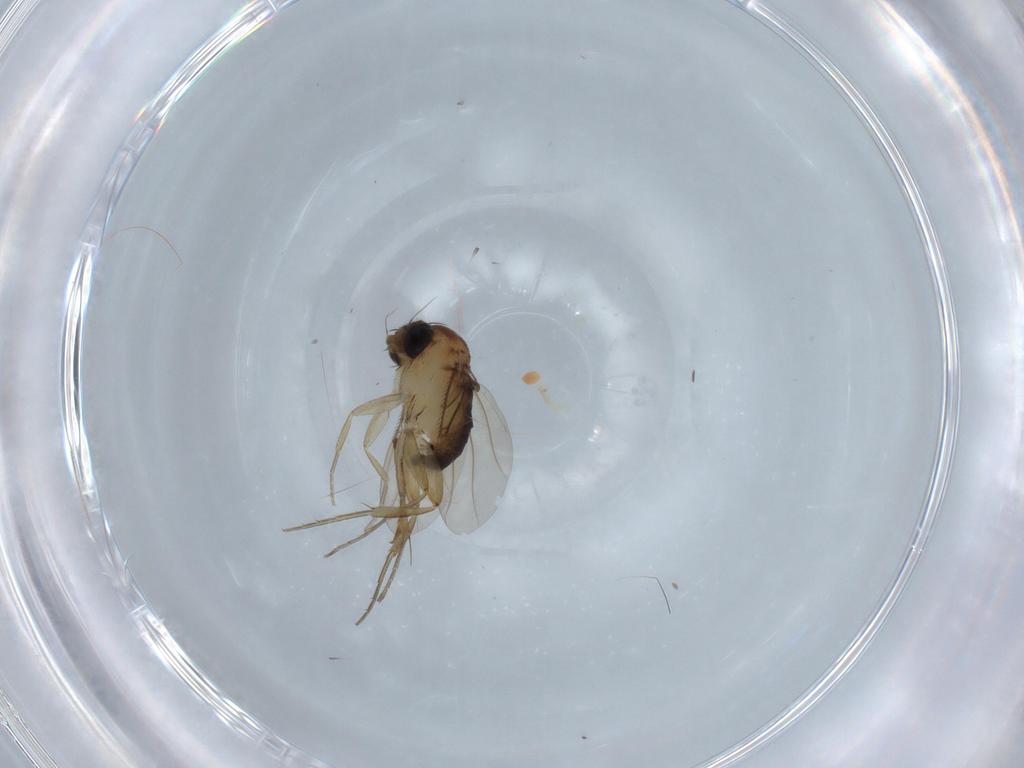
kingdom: Animalia
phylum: Arthropoda
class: Insecta
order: Diptera
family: Phoridae
